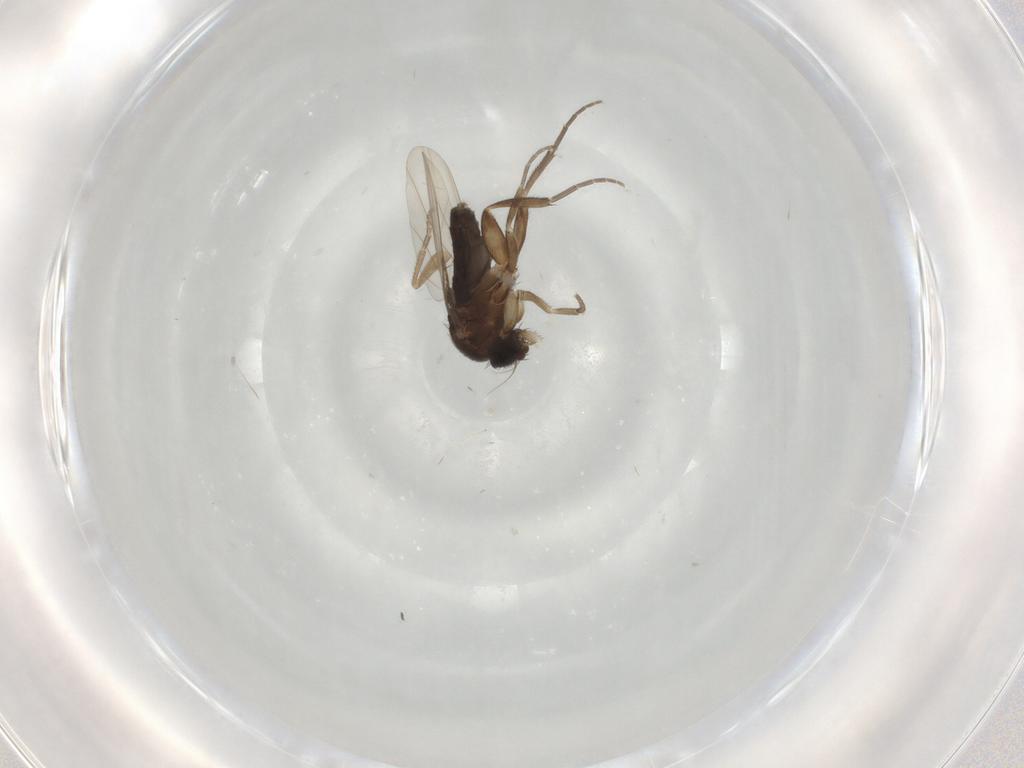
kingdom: Animalia
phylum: Arthropoda
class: Insecta
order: Diptera
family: Phoridae
